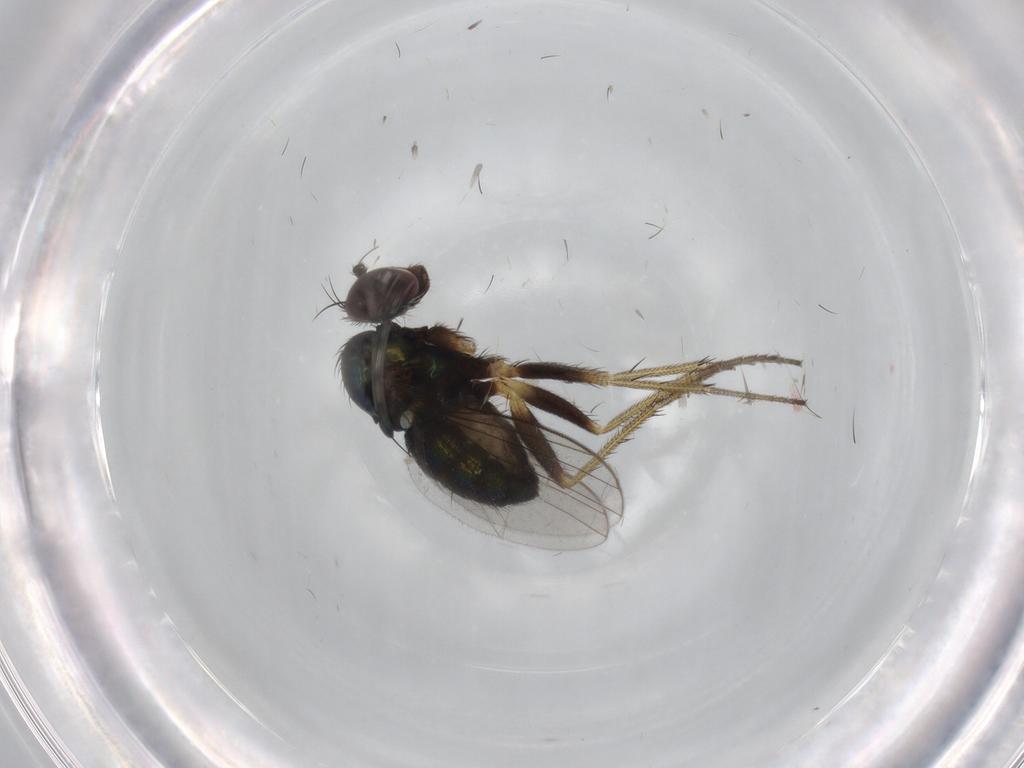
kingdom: Animalia
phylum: Arthropoda
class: Insecta
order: Diptera
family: Dolichopodidae
